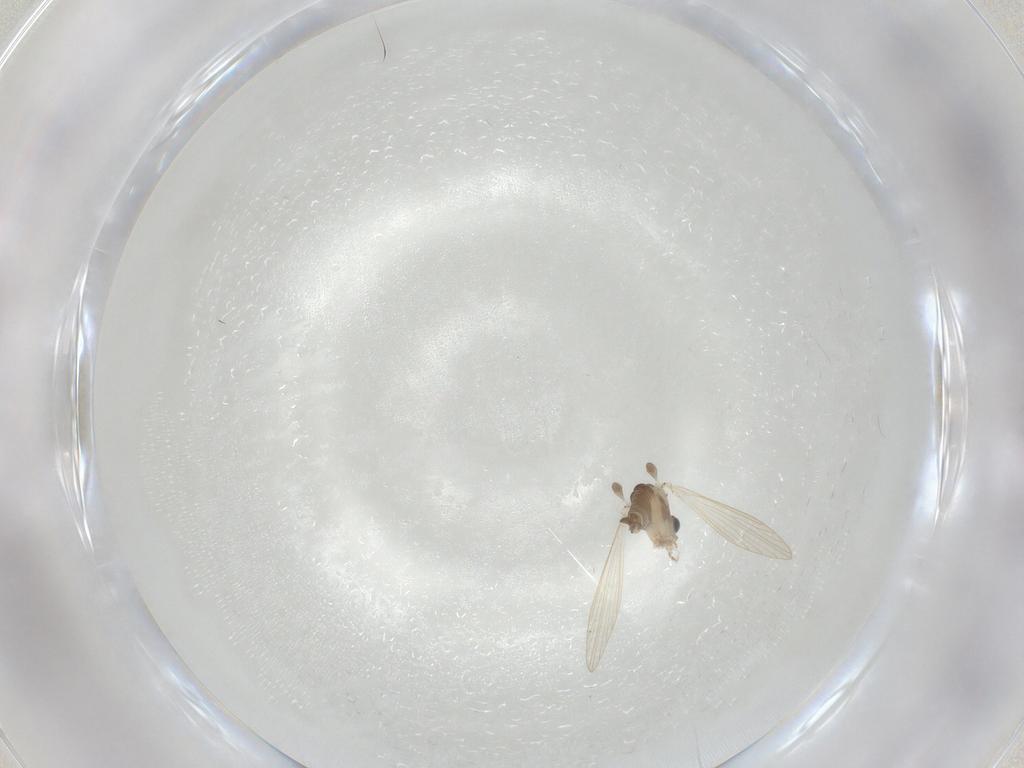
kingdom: Animalia
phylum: Arthropoda
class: Insecta
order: Diptera
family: Psychodidae
